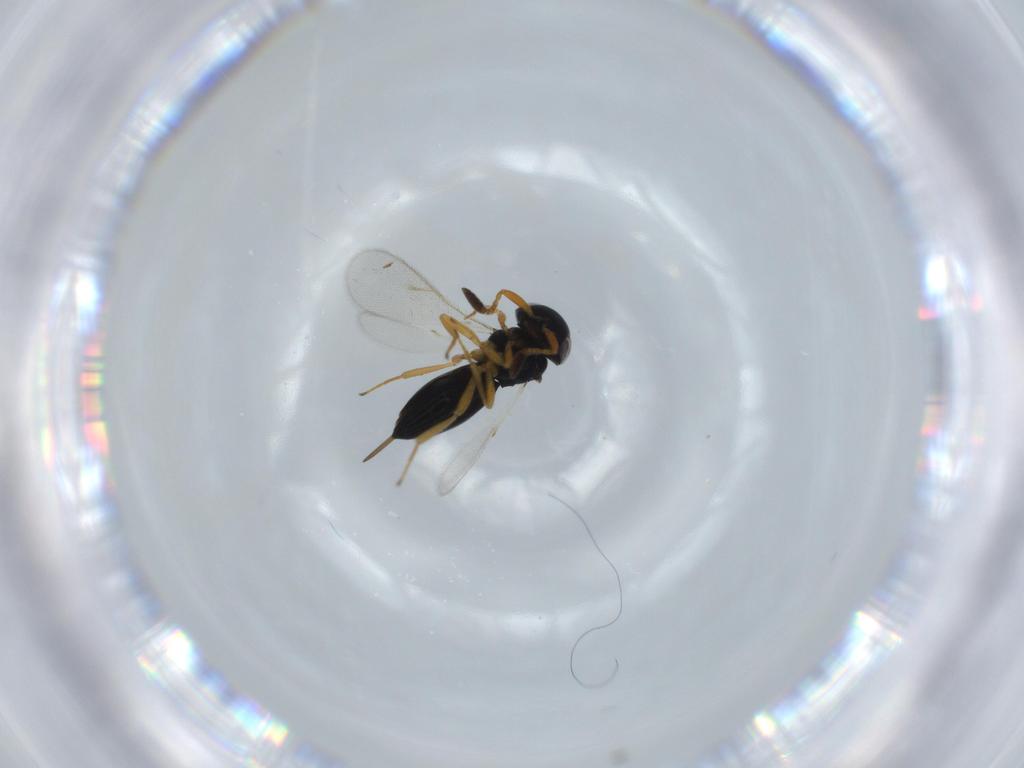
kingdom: Animalia
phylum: Arthropoda
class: Insecta
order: Hymenoptera
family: Scelionidae
